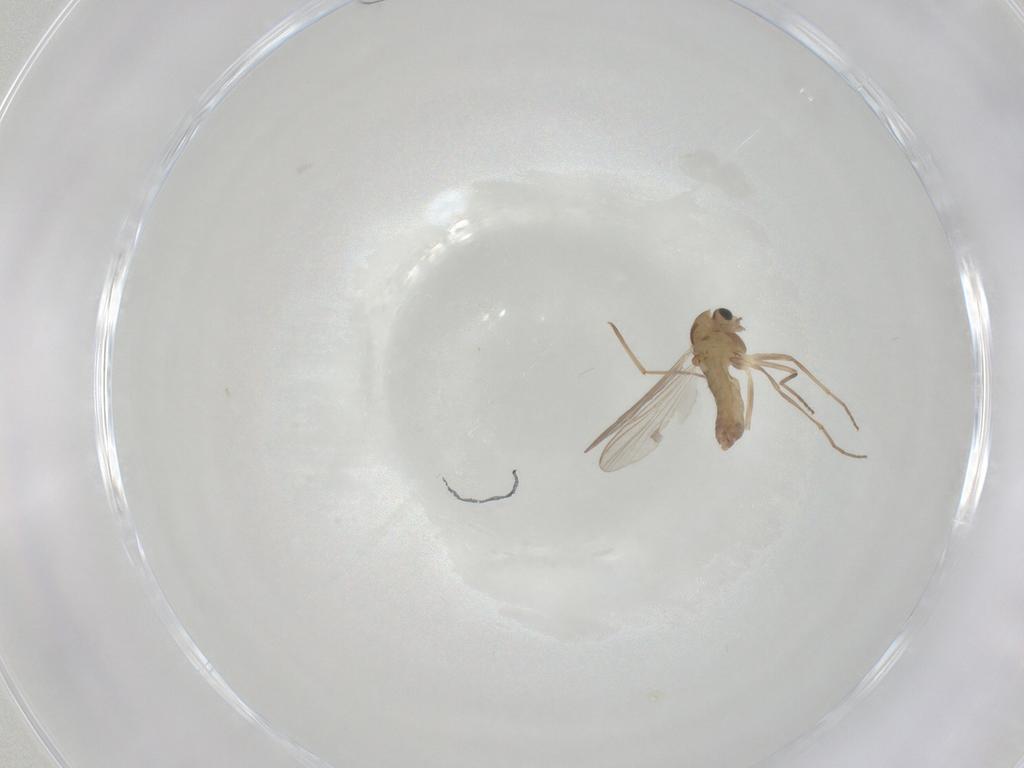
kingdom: Animalia
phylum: Arthropoda
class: Insecta
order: Diptera
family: Chironomidae
